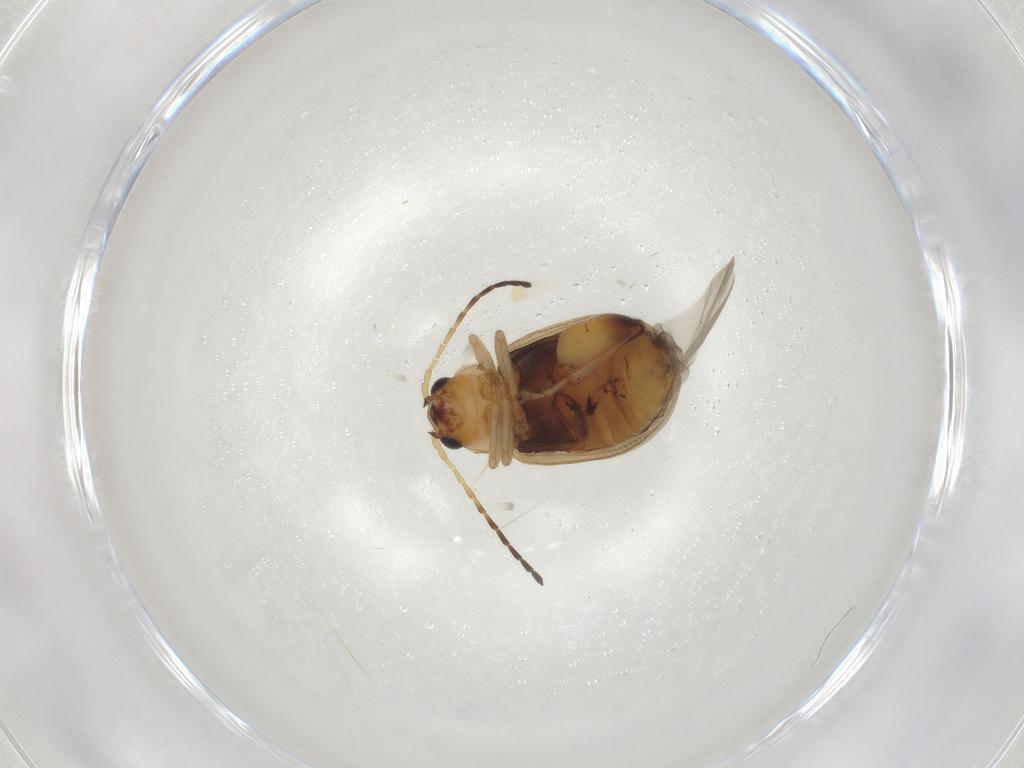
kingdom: Animalia
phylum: Arthropoda
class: Insecta
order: Coleoptera
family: Chrysomelidae
